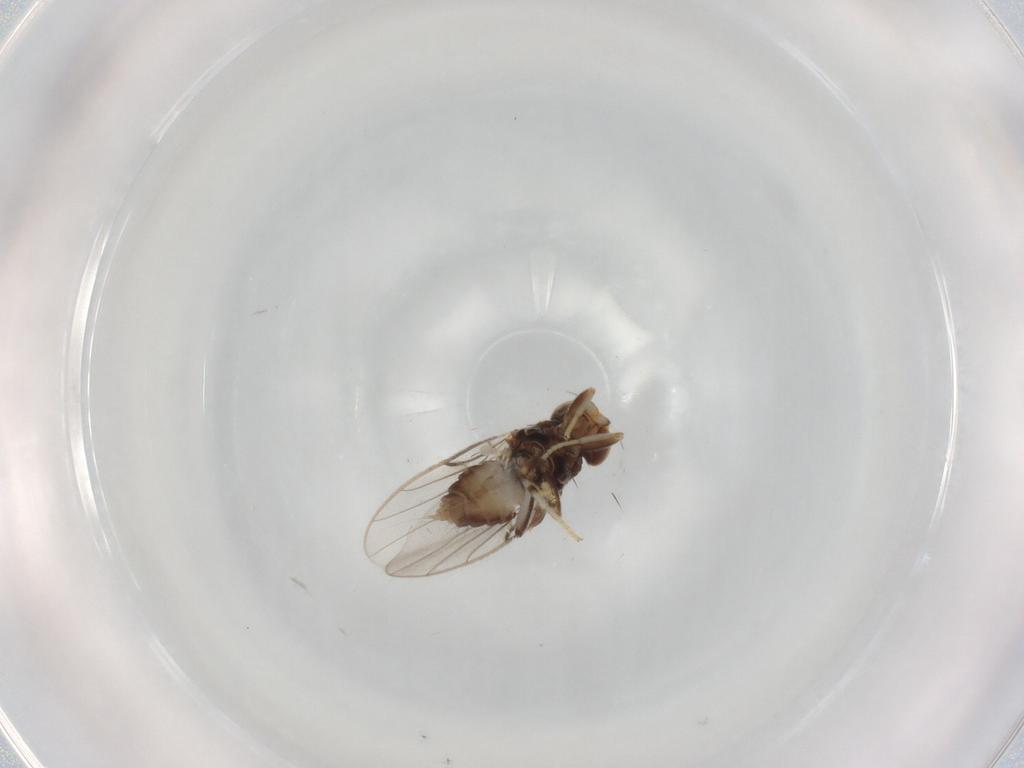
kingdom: Animalia
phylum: Arthropoda
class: Insecta
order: Diptera
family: Chloropidae
